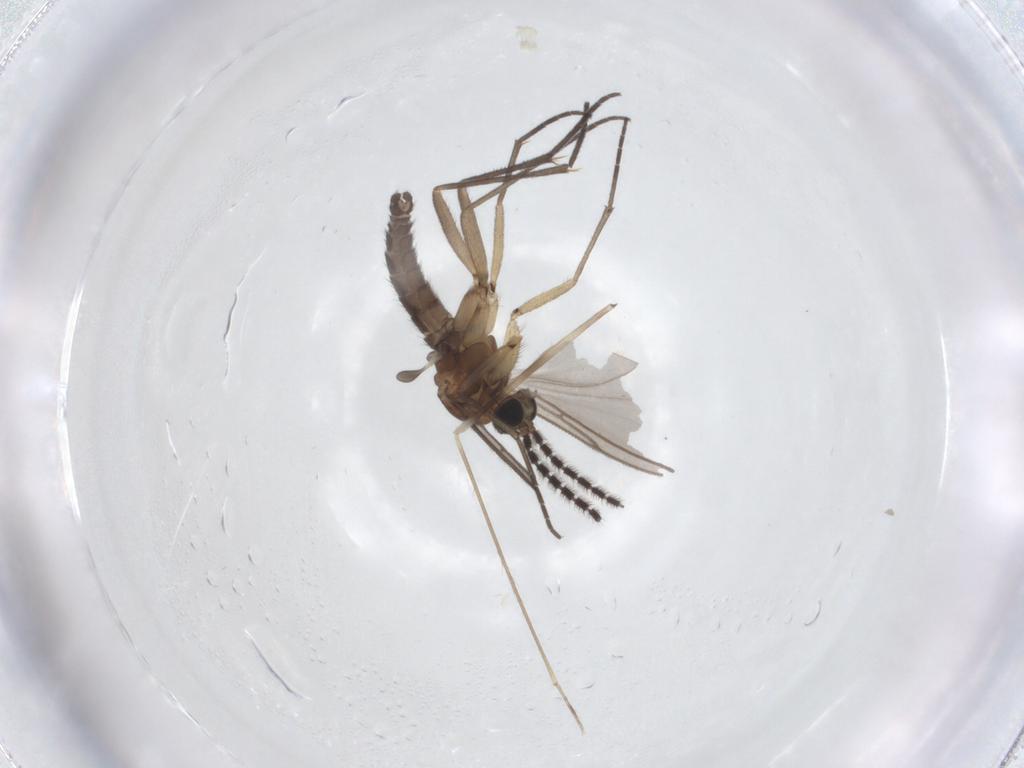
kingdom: Animalia
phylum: Arthropoda
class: Insecta
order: Diptera
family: Sciaridae
